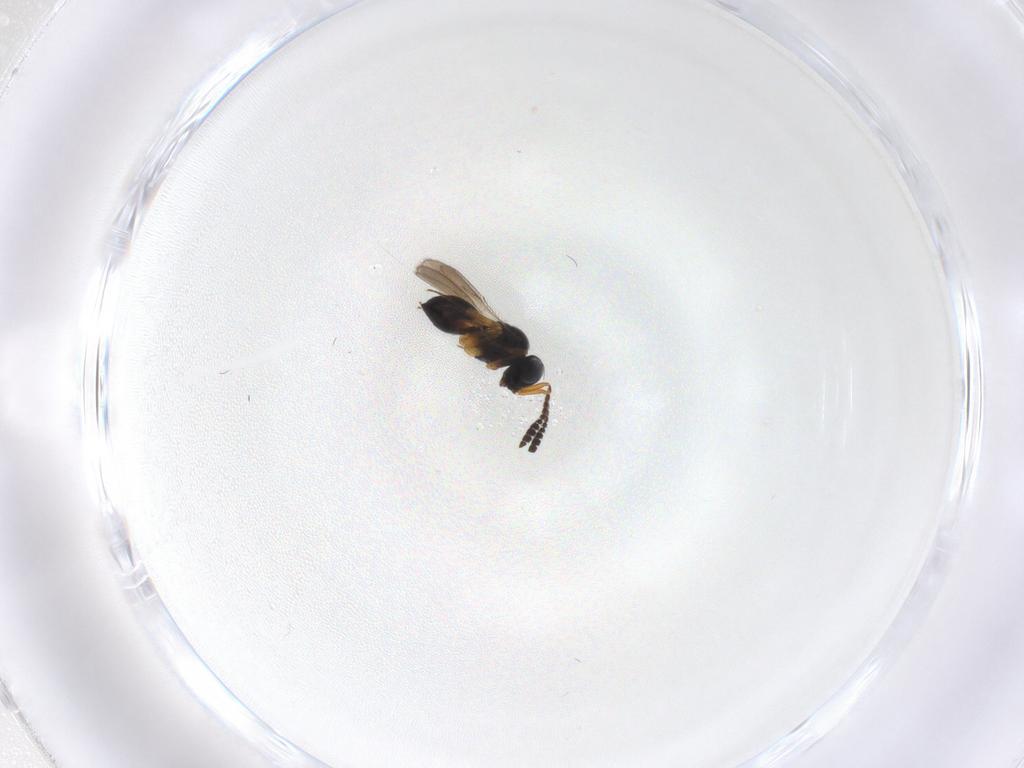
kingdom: Animalia
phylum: Arthropoda
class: Insecta
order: Hymenoptera
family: Scelionidae
